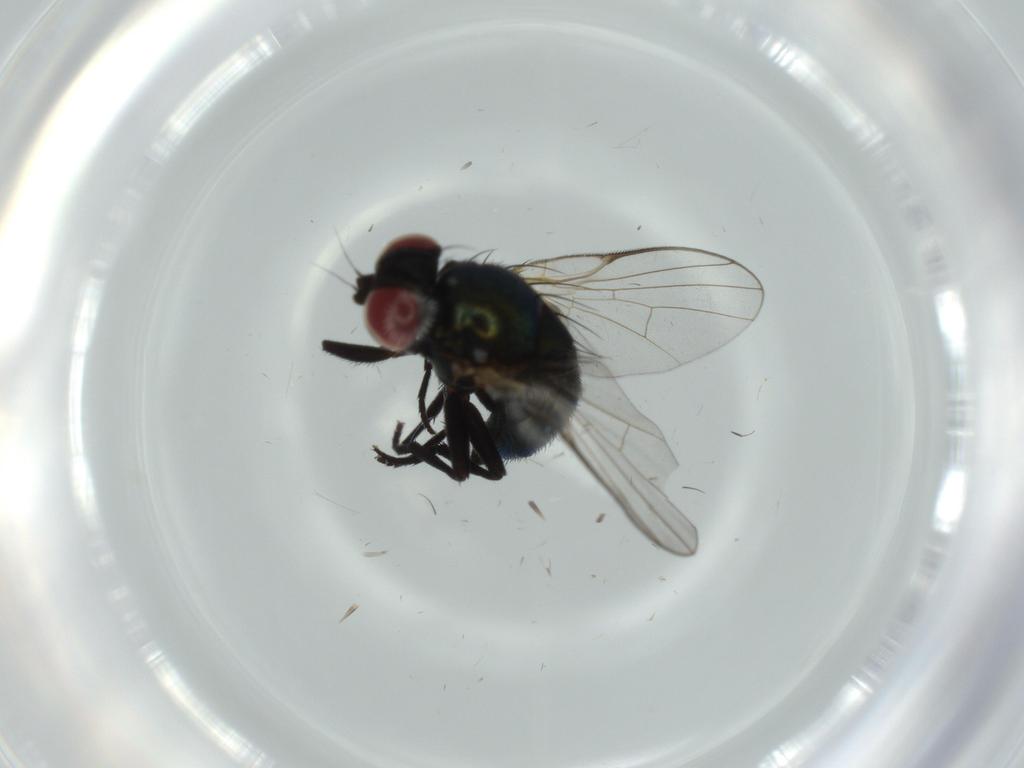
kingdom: Animalia
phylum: Arthropoda
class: Insecta
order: Diptera
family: Agromyzidae
